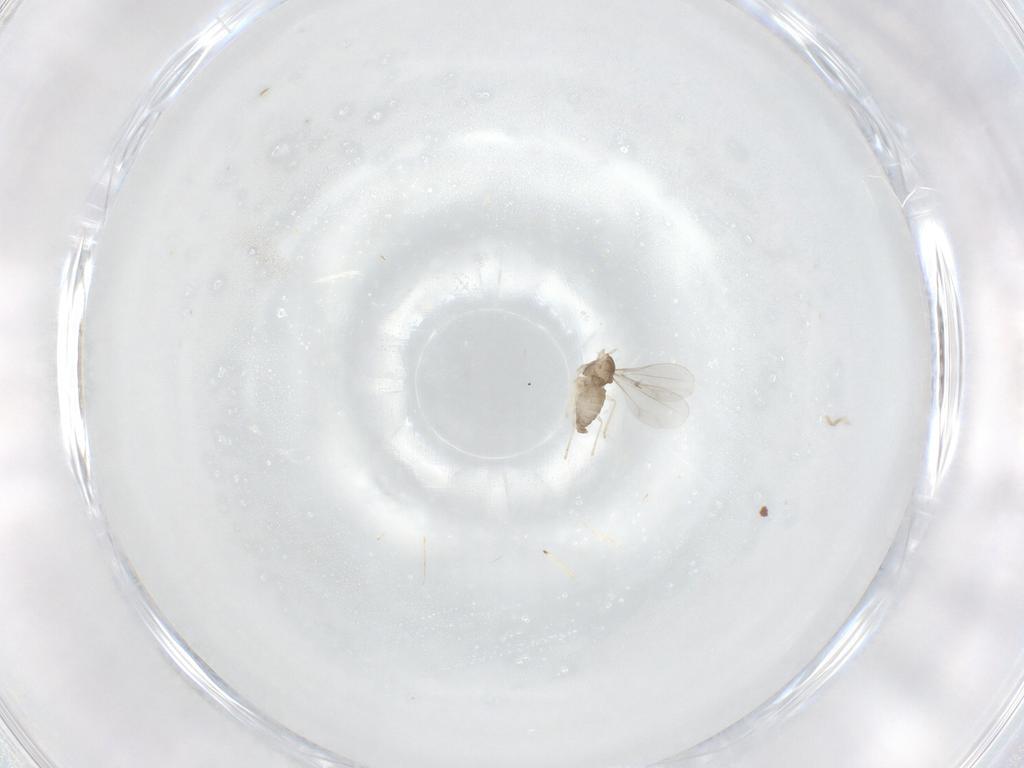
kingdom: Animalia
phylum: Arthropoda
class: Insecta
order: Diptera
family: Cecidomyiidae
